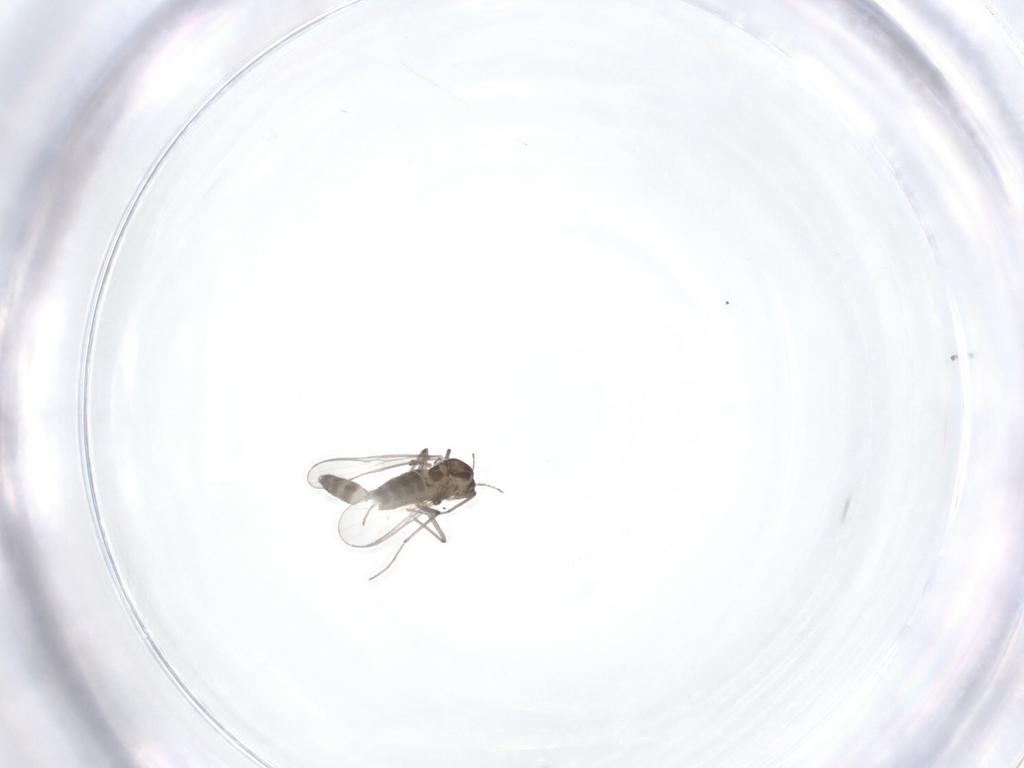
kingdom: Animalia
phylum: Arthropoda
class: Insecta
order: Diptera
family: Chironomidae
